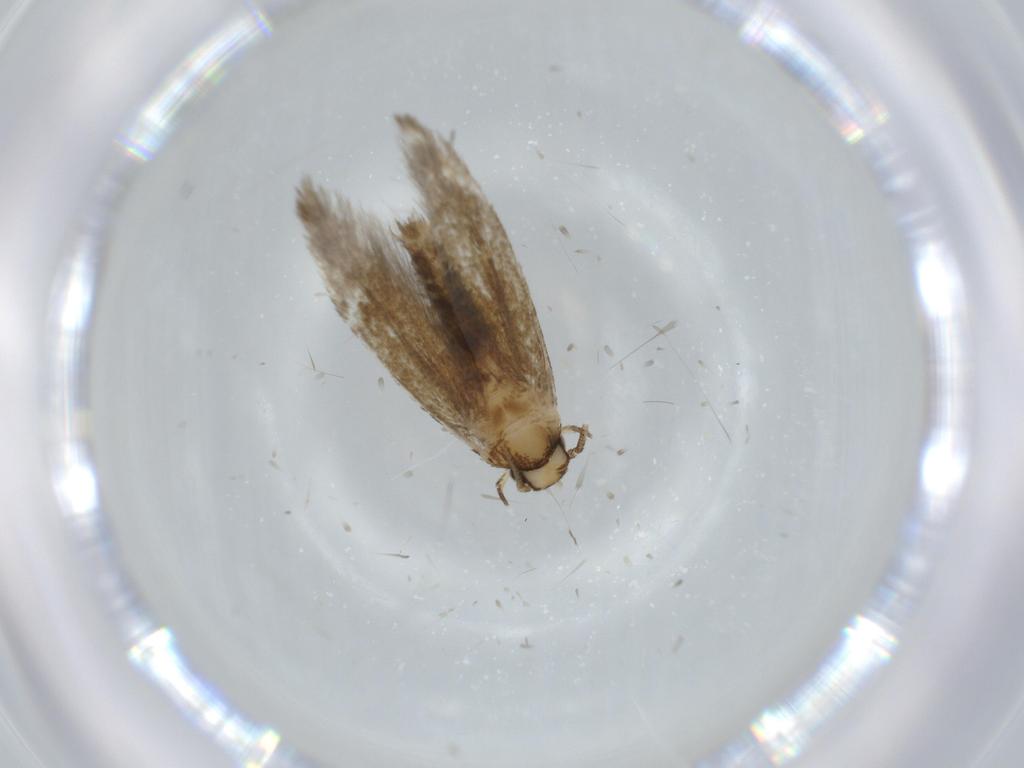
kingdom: Animalia
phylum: Arthropoda
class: Insecta
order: Lepidoptera
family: Tineidae
